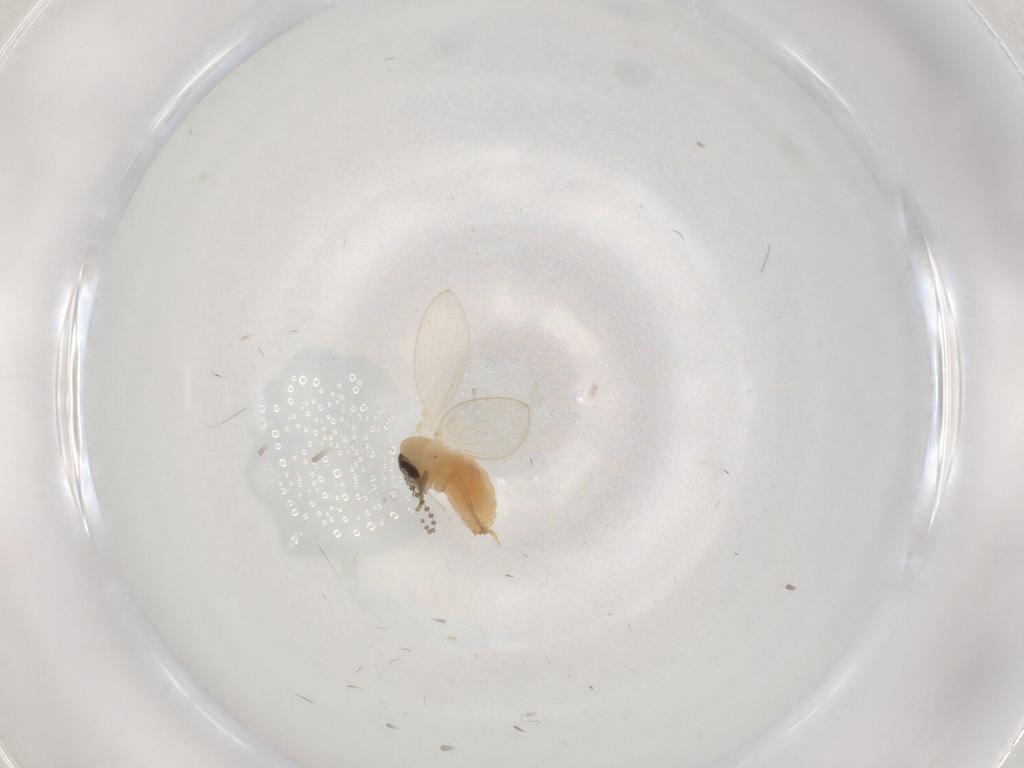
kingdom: Animalia
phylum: Arthropoda
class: Insecta
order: Diptera
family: Psychodidae
